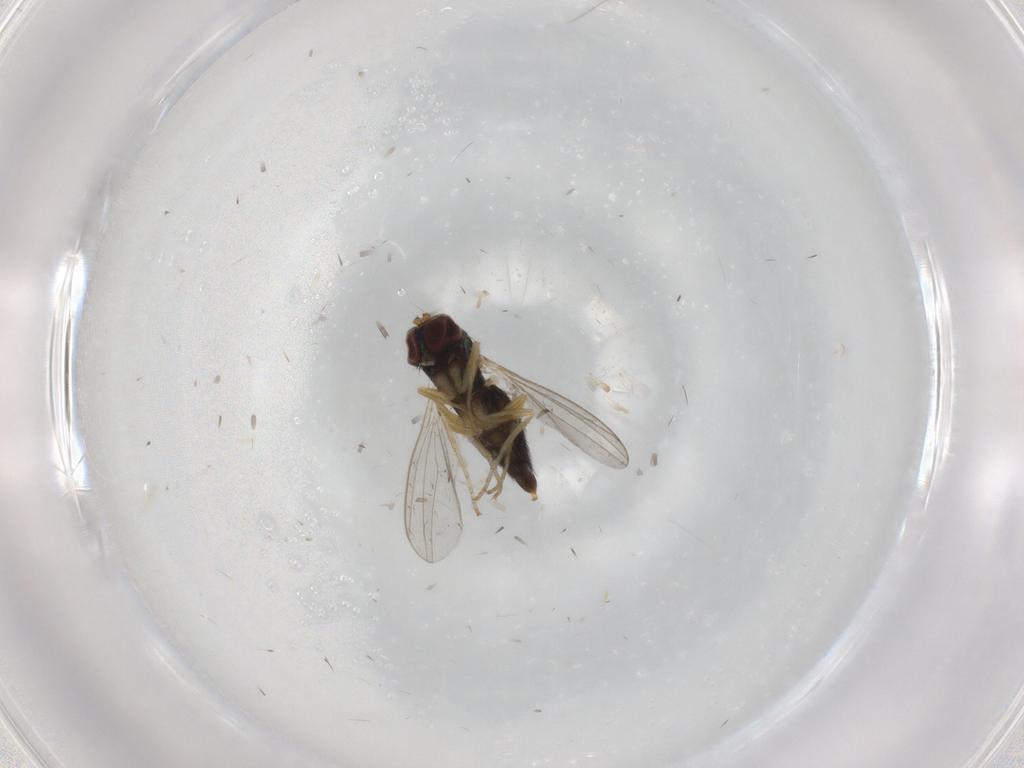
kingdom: Animalia
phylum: Arthropoda
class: Insecta
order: Diptera
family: Dolichopodidae
